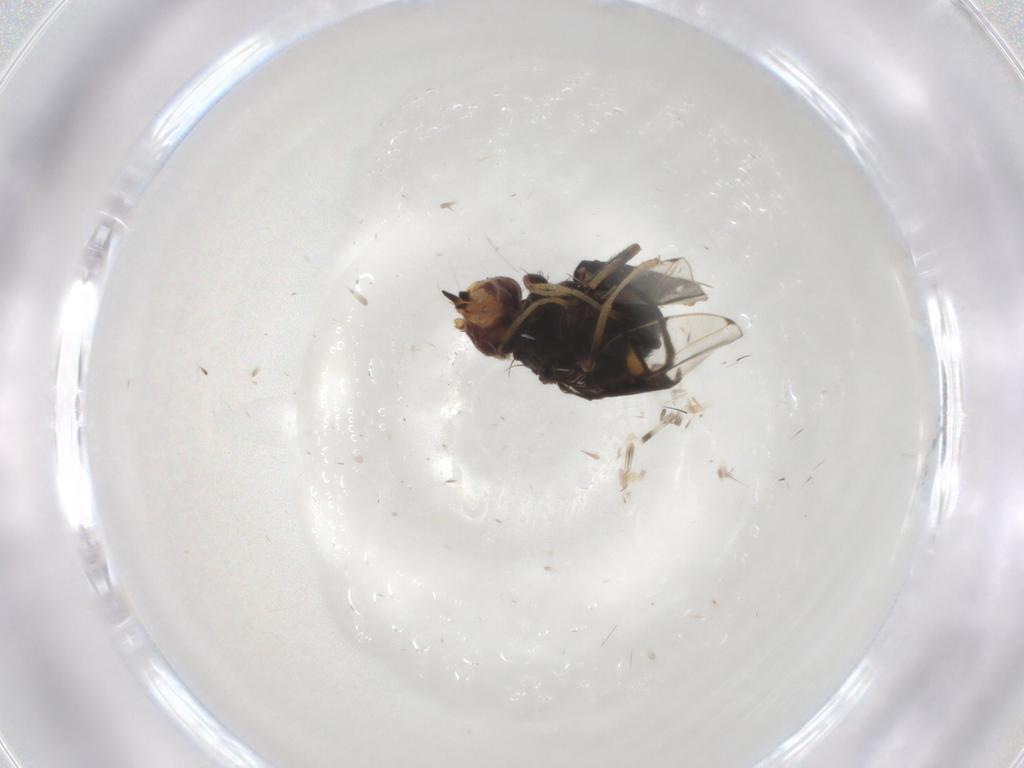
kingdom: Animalia
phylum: Arthropoda
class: Insecta
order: Diptera
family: Tephritidae
